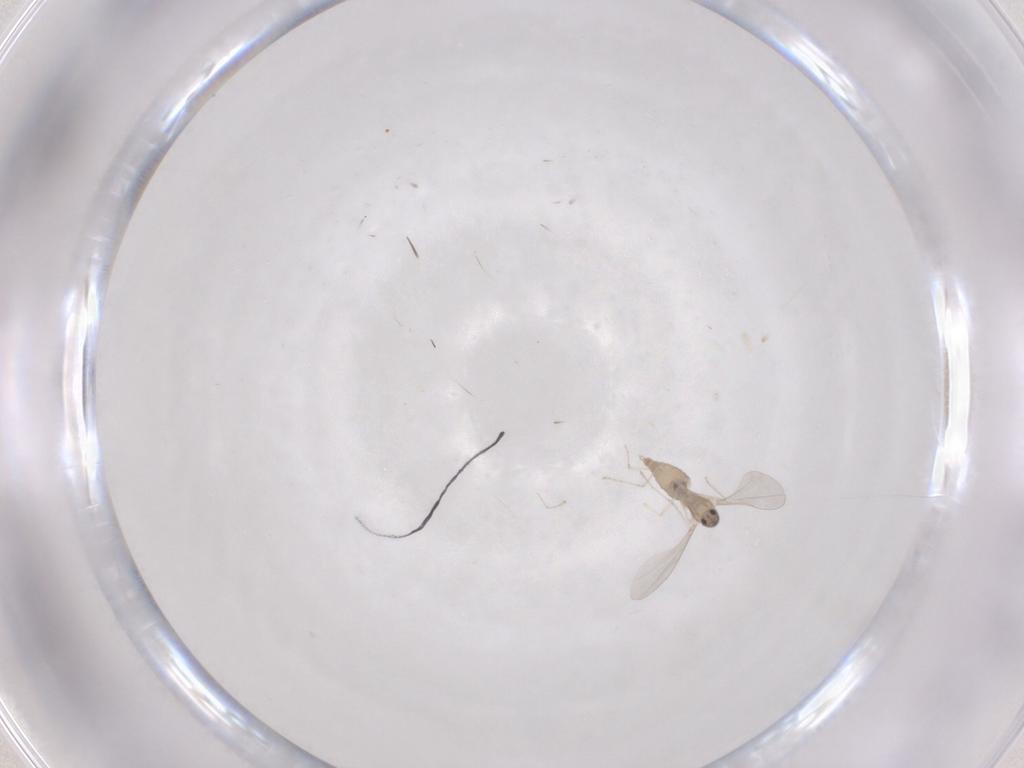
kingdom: Animalia
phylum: Arthropoda
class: Insecta
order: Diptera
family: Cecidomyiidae
